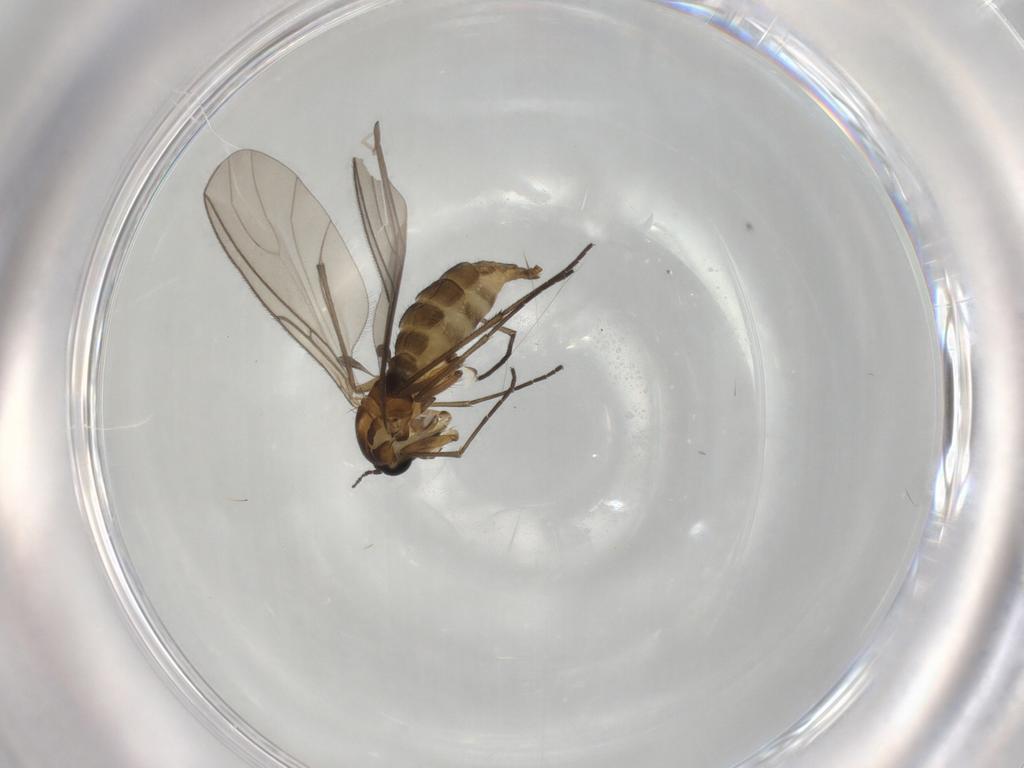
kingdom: Animalia
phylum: Arthropoda
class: Insecta
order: Diptera
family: Sciaridae
